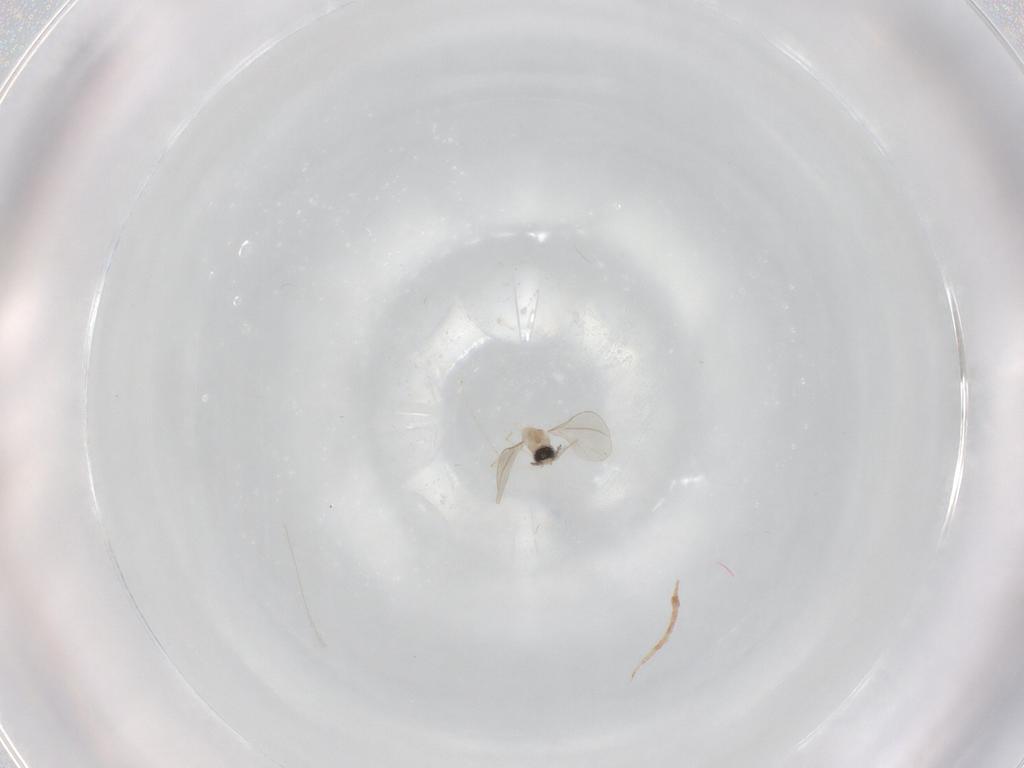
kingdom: Animalia
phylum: Arthropoda
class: Insecta
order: Diptera
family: Cecidomyiidae
